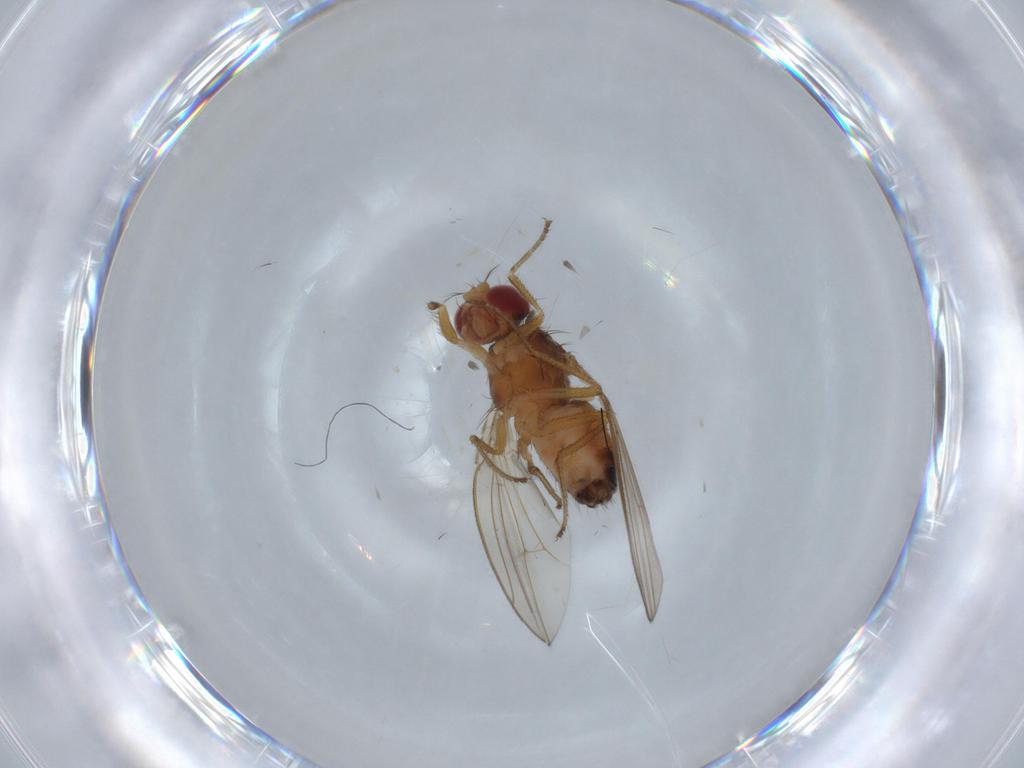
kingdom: Animalia
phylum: Arthropoda
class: Insecta
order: Diptera
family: Drosophilidae
